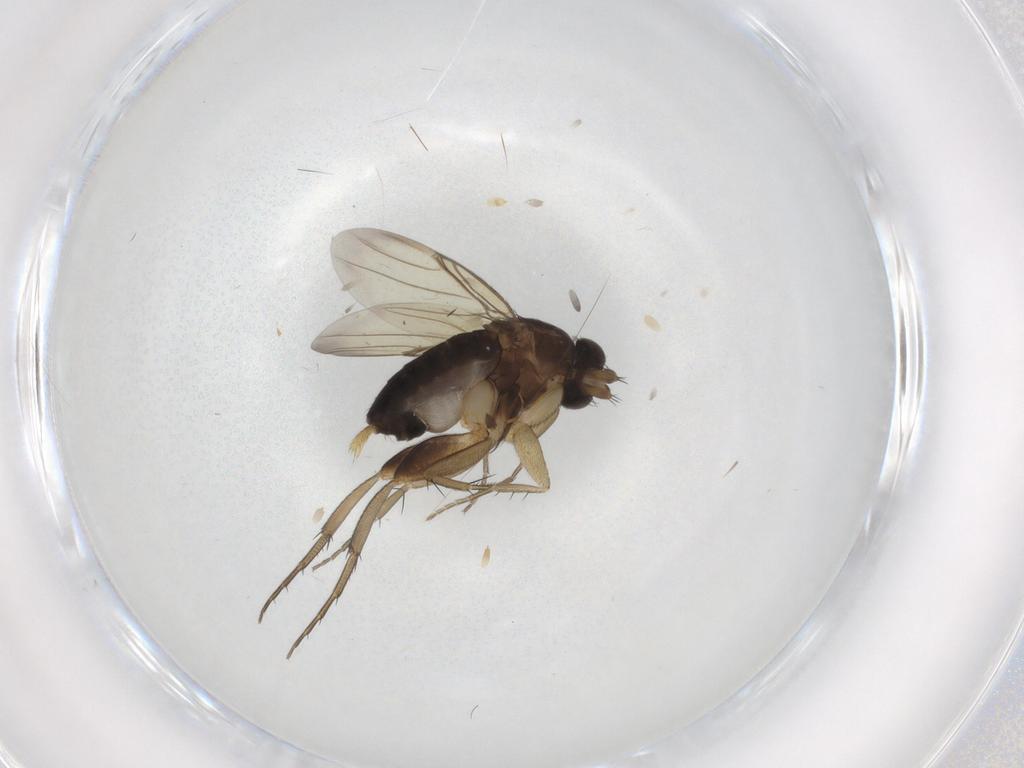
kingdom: Animalia
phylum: Arthropoda
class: Insecta
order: Diptera
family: Phoridae
